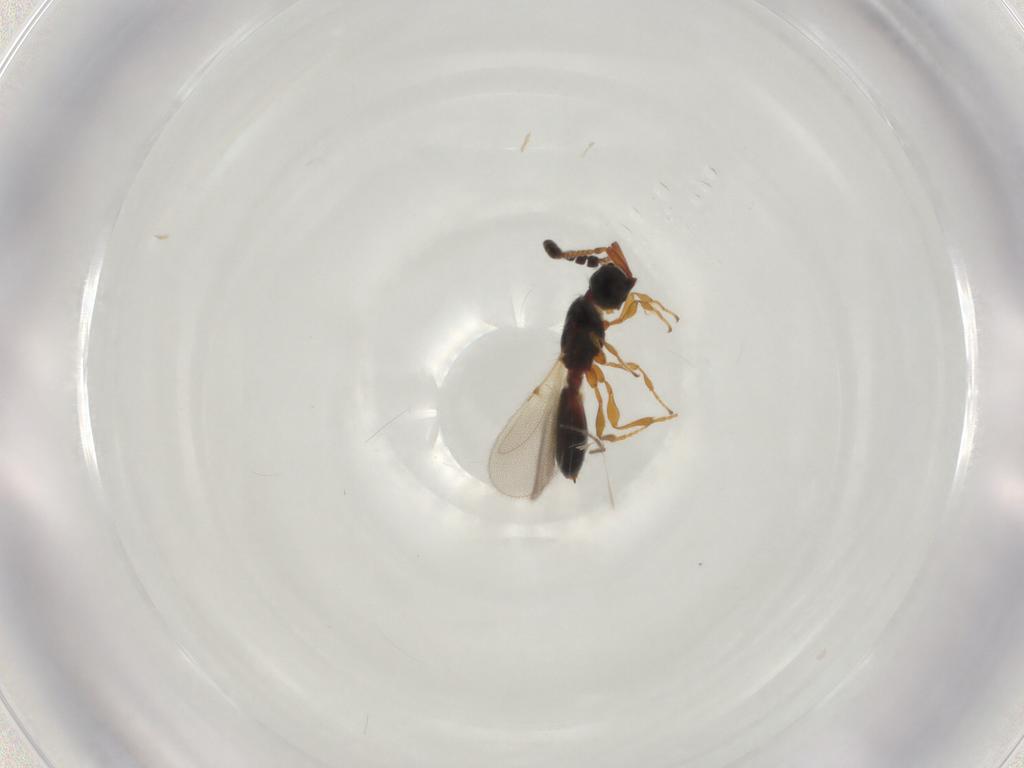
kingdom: Animalia
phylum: Arthropoda
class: Insecta
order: Hymenoptera
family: Diapriidae
